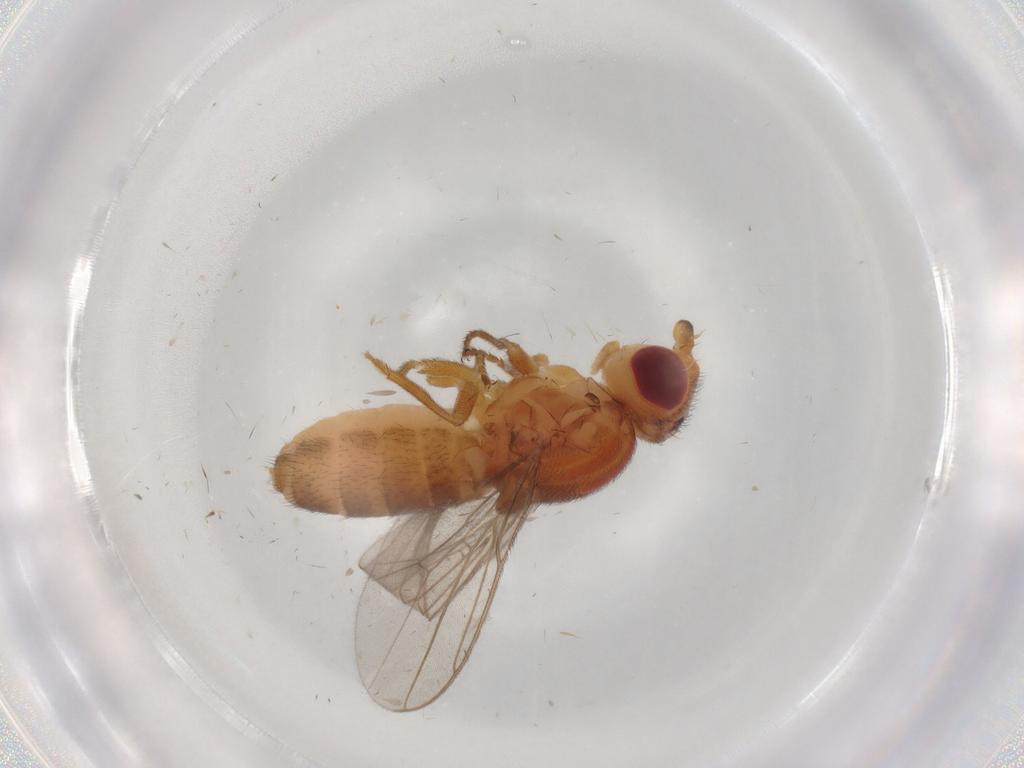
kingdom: Animalia
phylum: Arthropoda
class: Insecta
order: Diptera
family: Chloropidae
